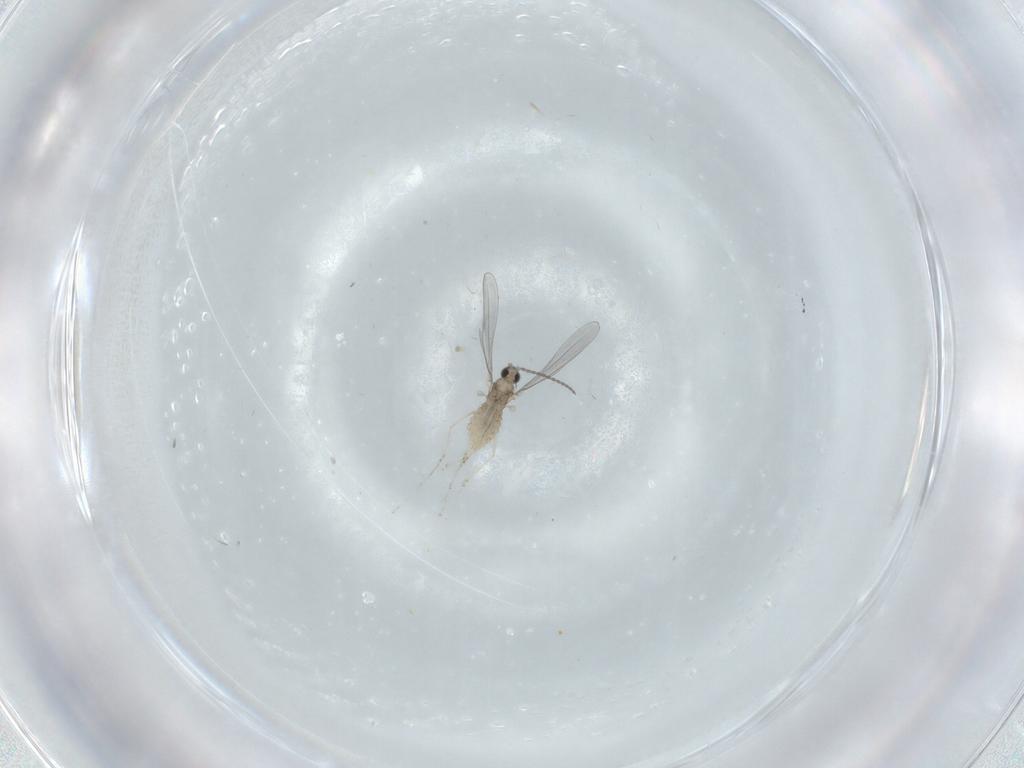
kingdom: Animalia
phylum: Arthropoda
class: Insecta
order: Diptera
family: Cecidomyiidae
